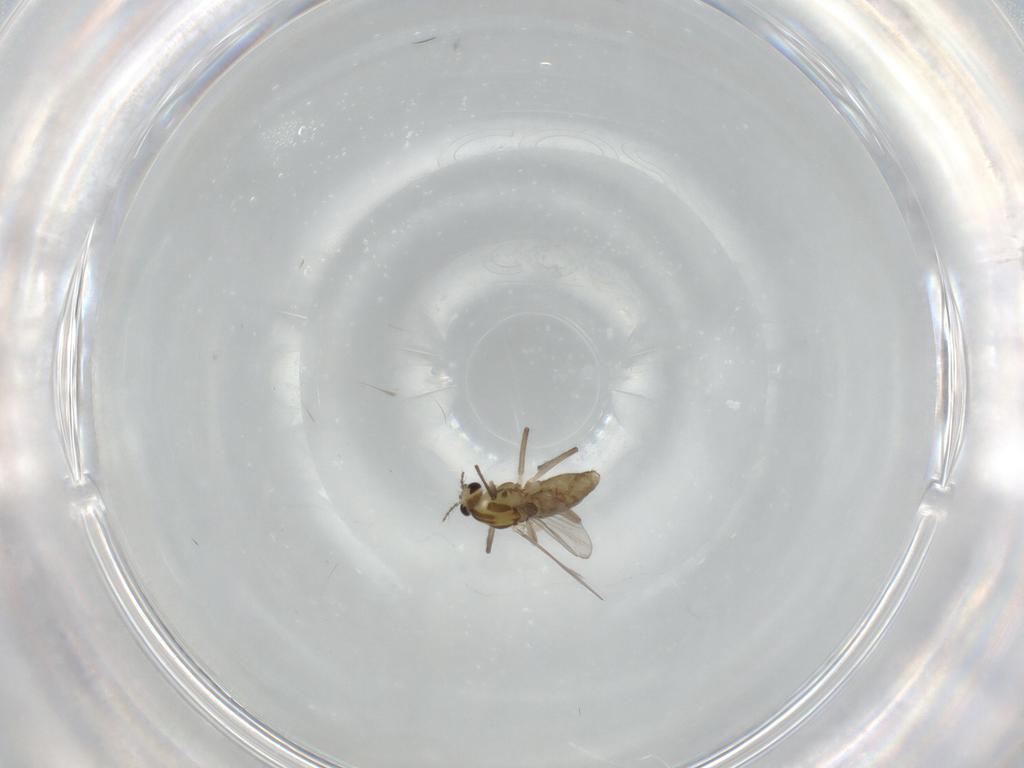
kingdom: Animalia
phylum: Arthropoda
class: Insecta
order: Diptera
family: Chironomidae
